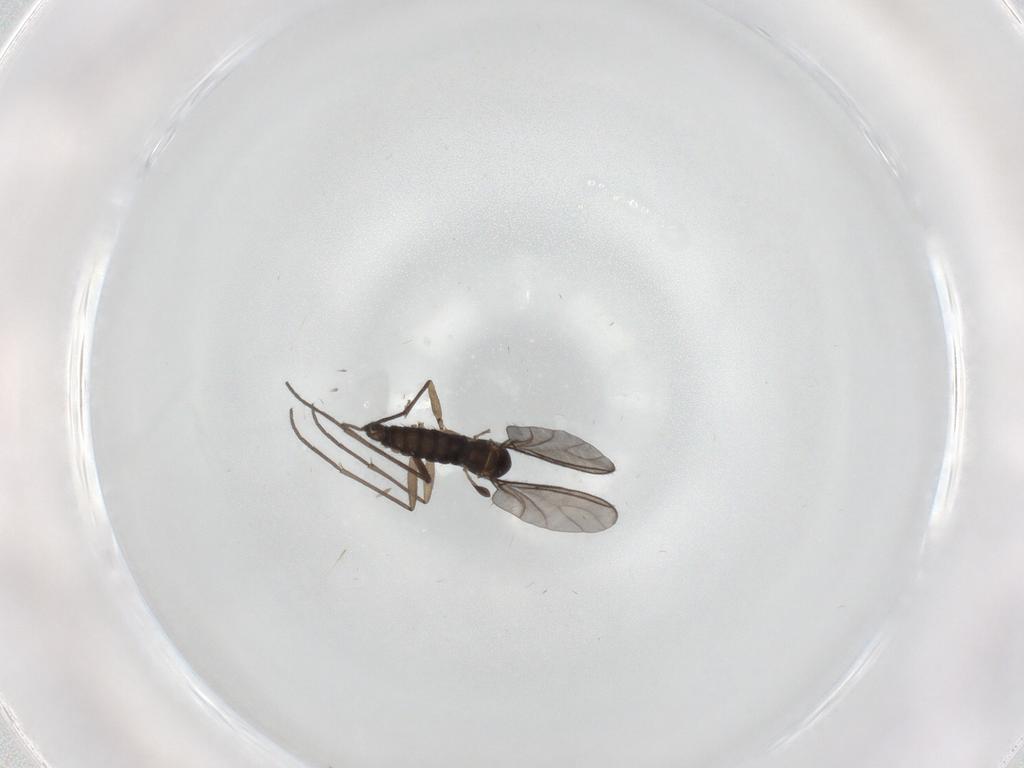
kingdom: Animalia
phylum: Arthropoda
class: Insecta
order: Diptera
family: Sciaridae
